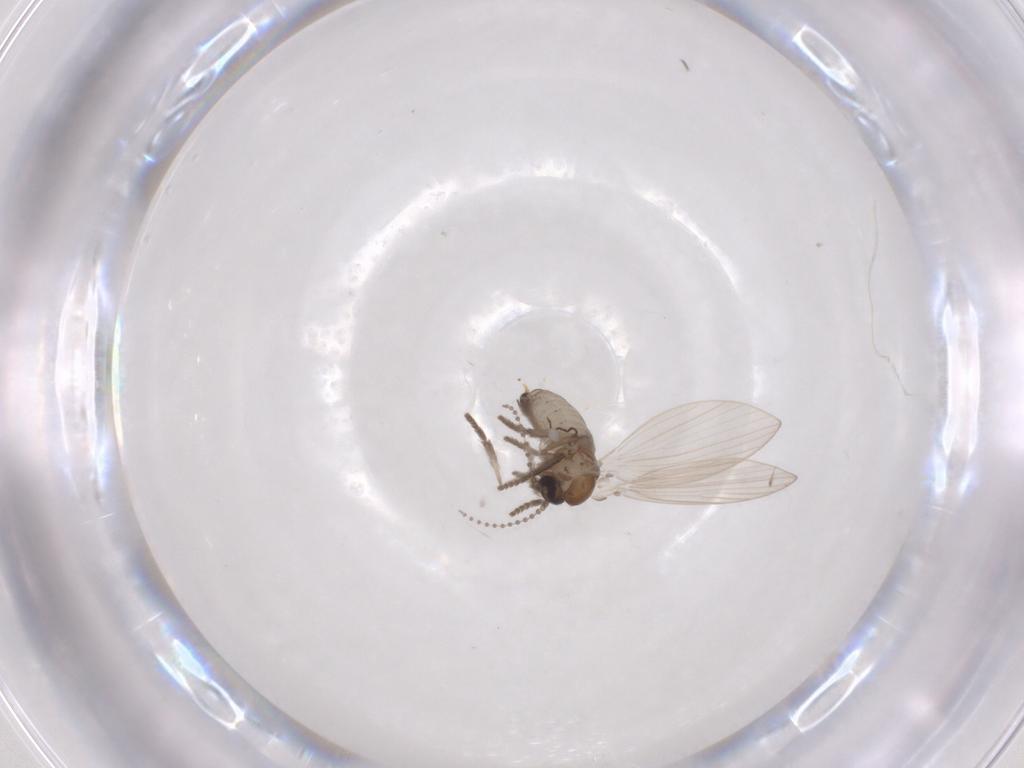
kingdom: Animalia
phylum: Arthropoda
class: Insecta
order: Diptera
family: Psychodidae
